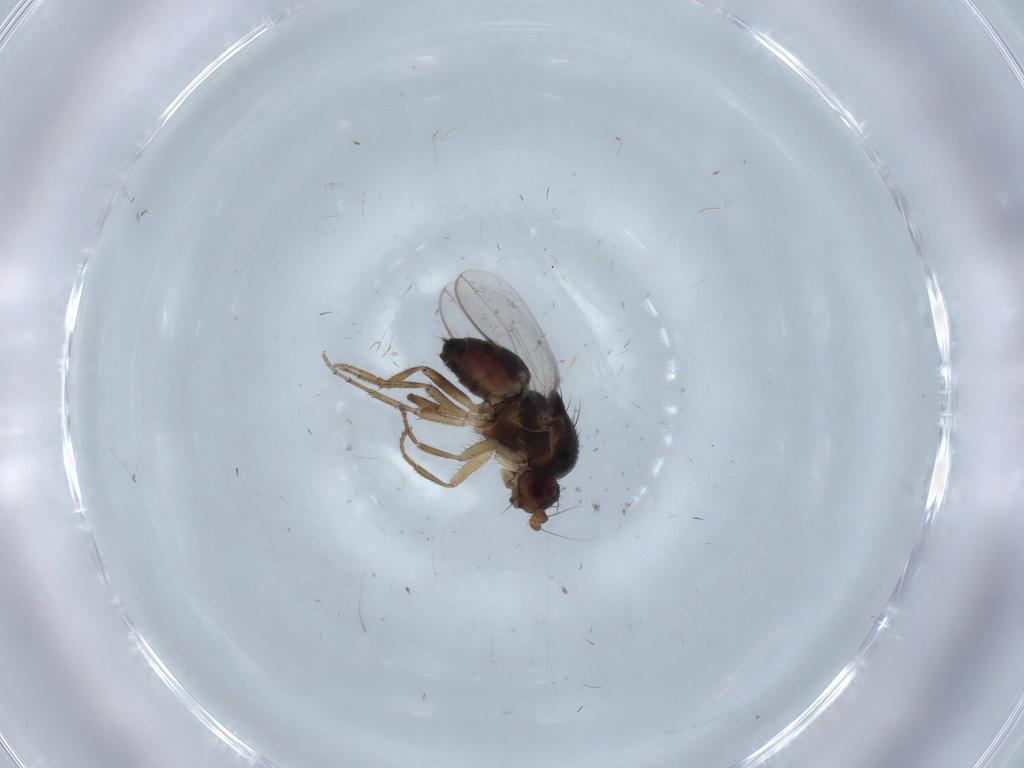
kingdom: Animalia
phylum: Arthropoda
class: Insecta
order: Diptera
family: Sphaeroceridae
